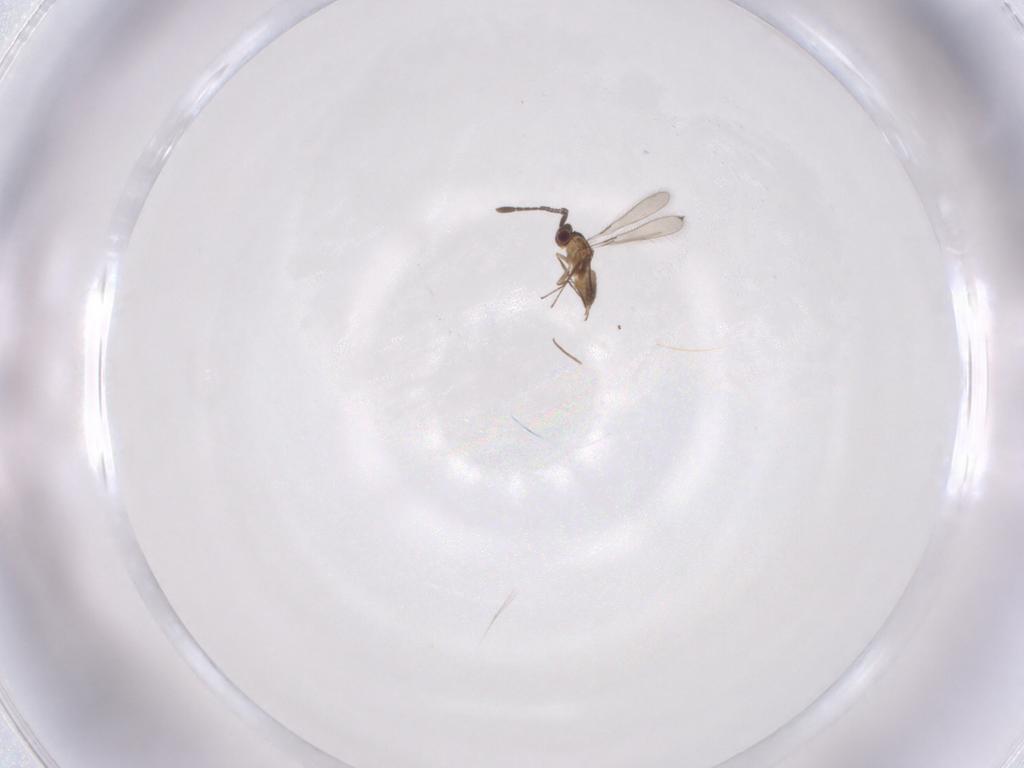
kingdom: Animalia
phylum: Arthropoda
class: Insecta
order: Hymenoptera
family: Mymaridae
